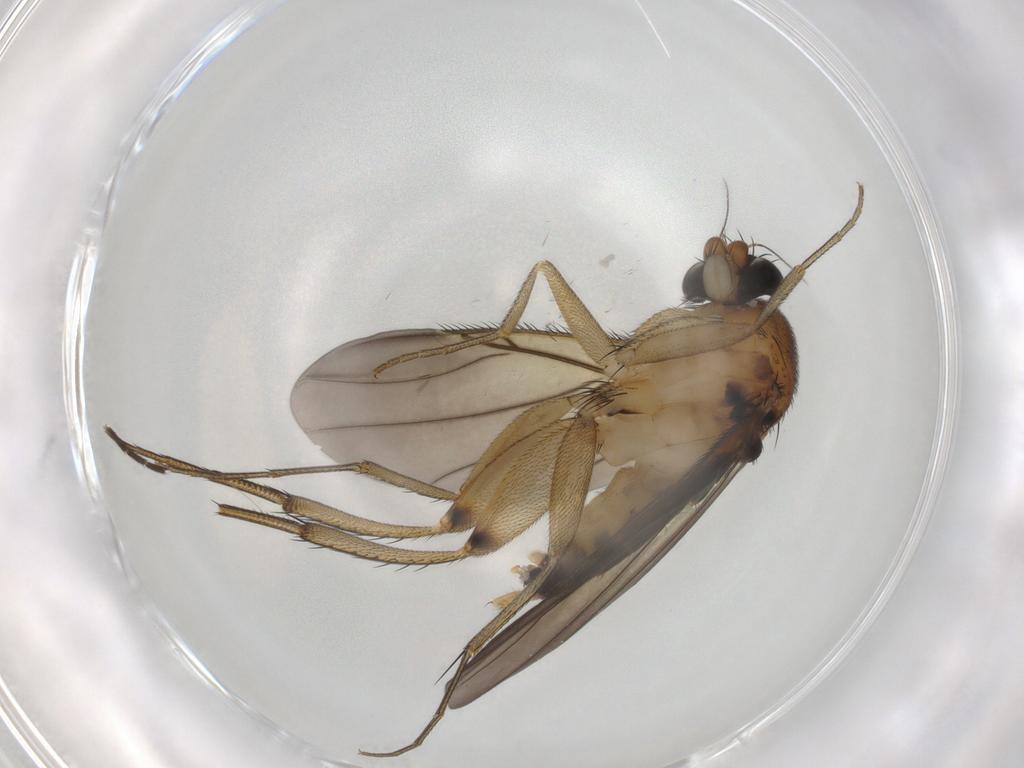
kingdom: Animalia
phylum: Arthropoda
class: Insecta
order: Diptera
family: Phoridae
